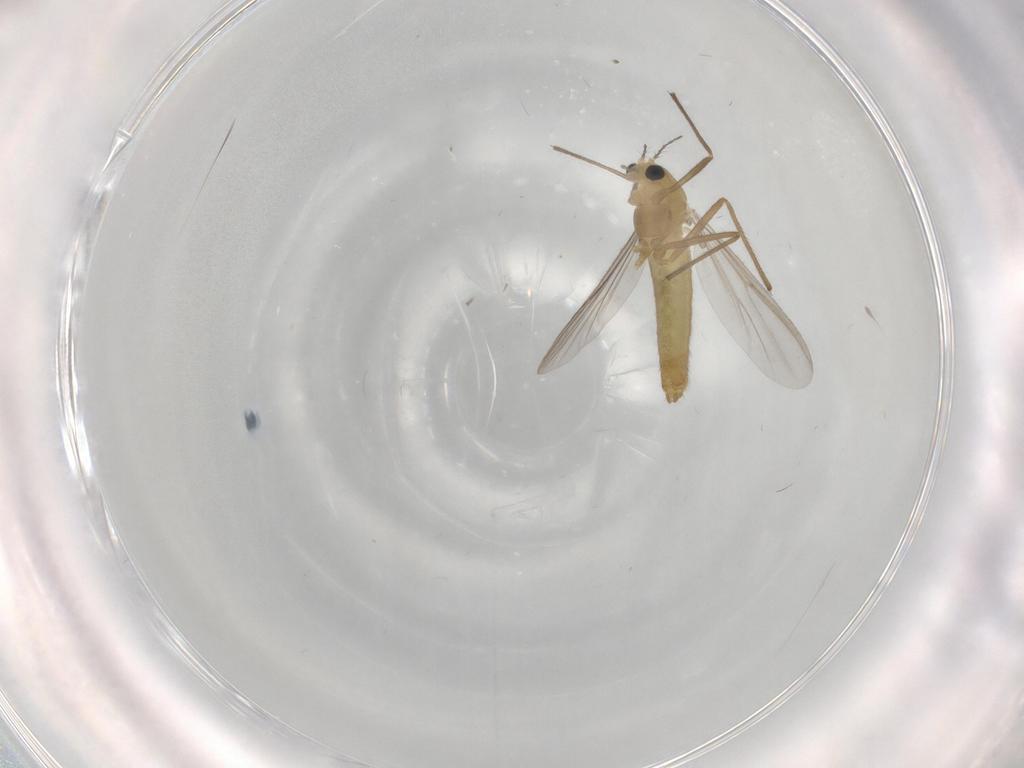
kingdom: Animalia
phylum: Arthropoda
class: Insecta
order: Diptera
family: Chironomidae
